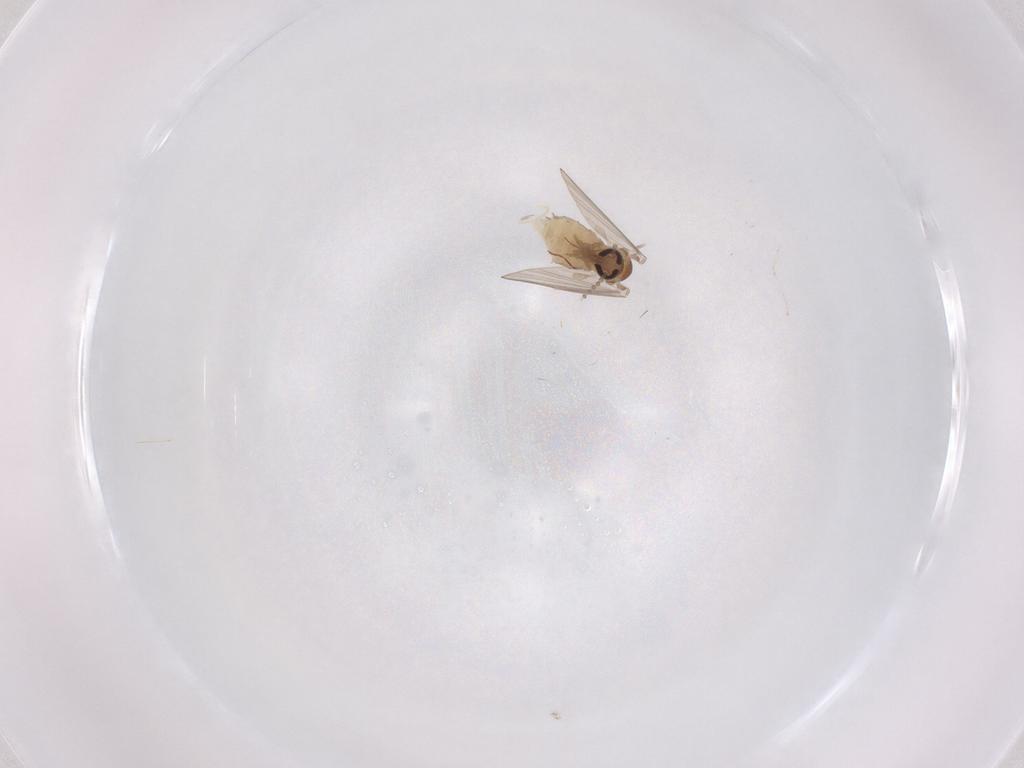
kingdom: Animalia
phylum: Arthropoda
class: Insecta
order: Diptera
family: Psychodidae
